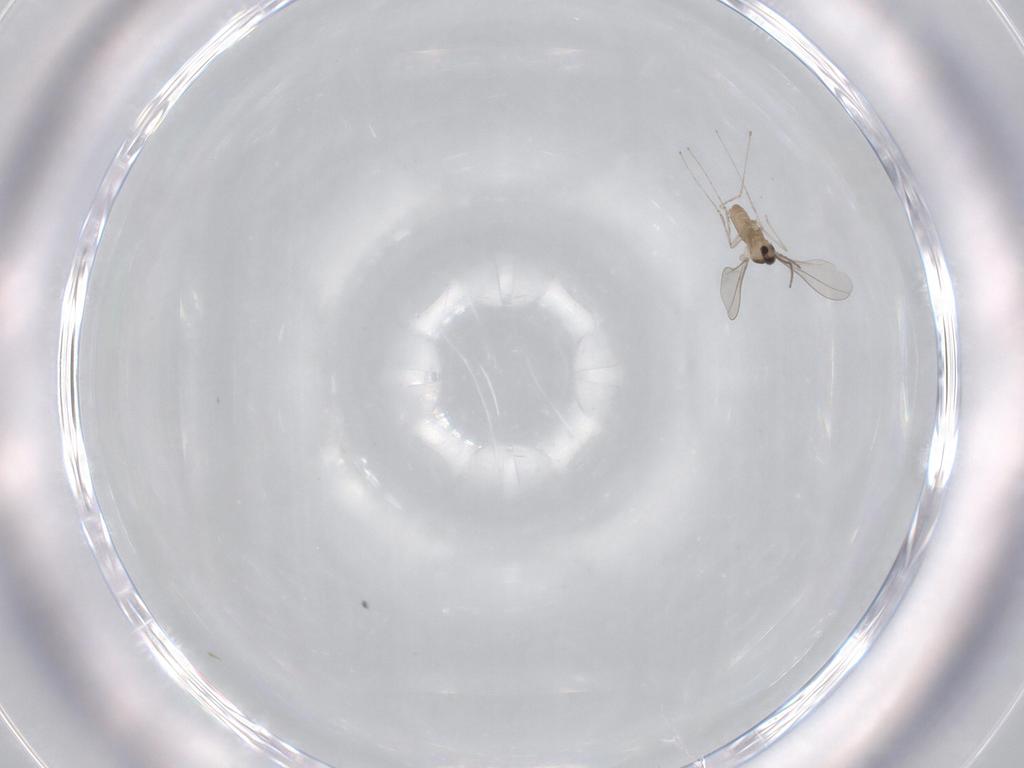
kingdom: Animalia
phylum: Arthropoda
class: Insecta
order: Diptera
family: Cecidomyiidae
